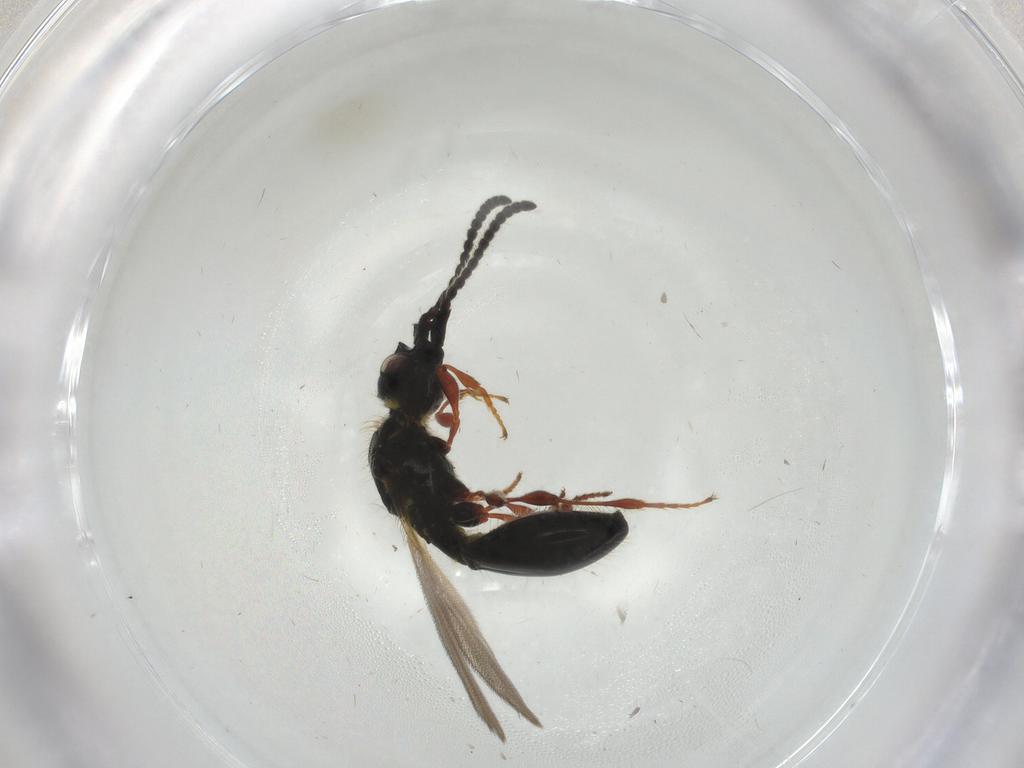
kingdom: Animalia
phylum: Arthropoda
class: Insecta
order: Hymenoptera
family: Diapriidae
